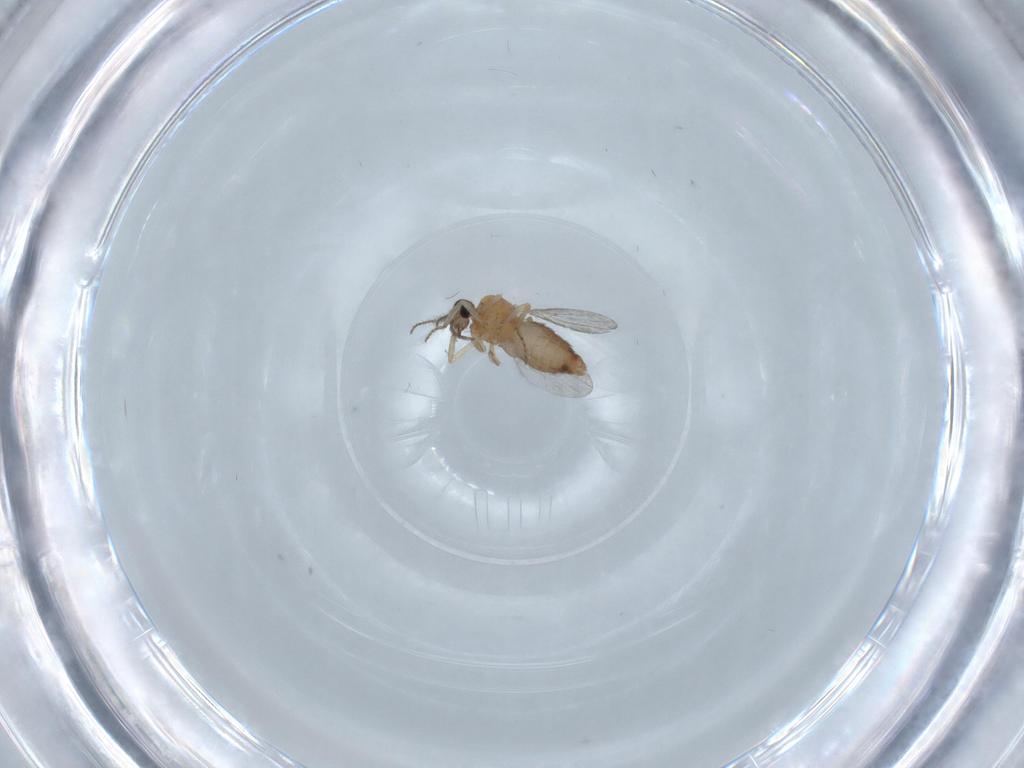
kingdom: Animalia
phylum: Arthropoda
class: Insecta
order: Diptera
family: Ceratopogonidae
